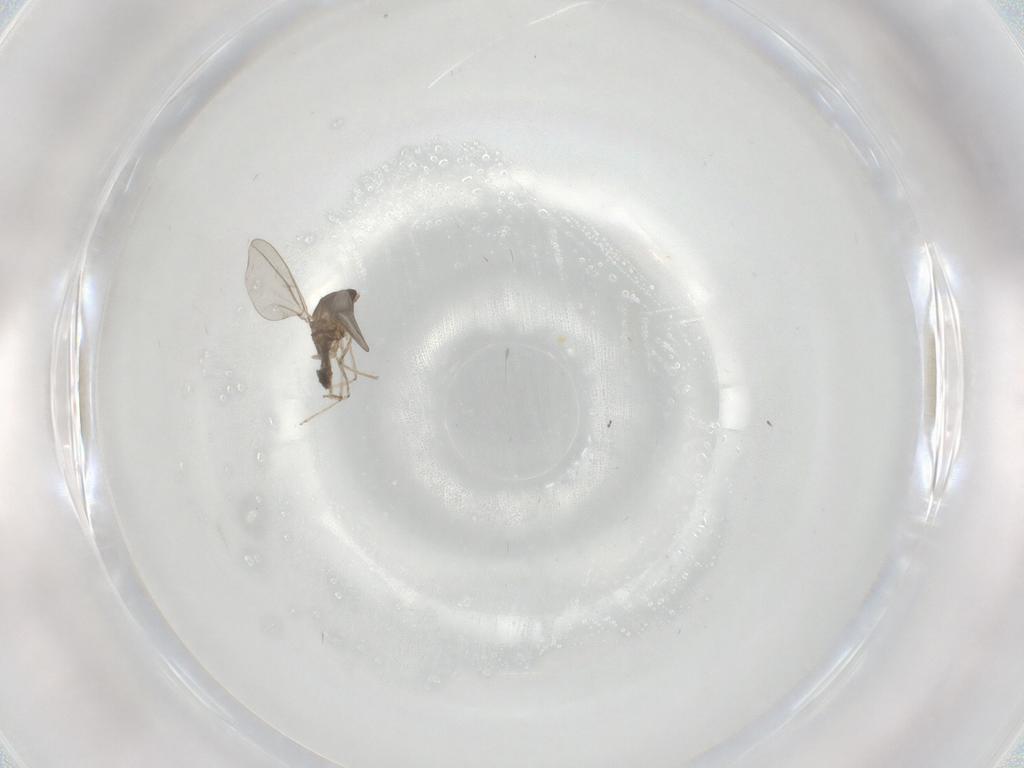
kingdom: Animalia
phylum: Arthropoda
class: Insecta
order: Diptera
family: Cecidomyiidae
